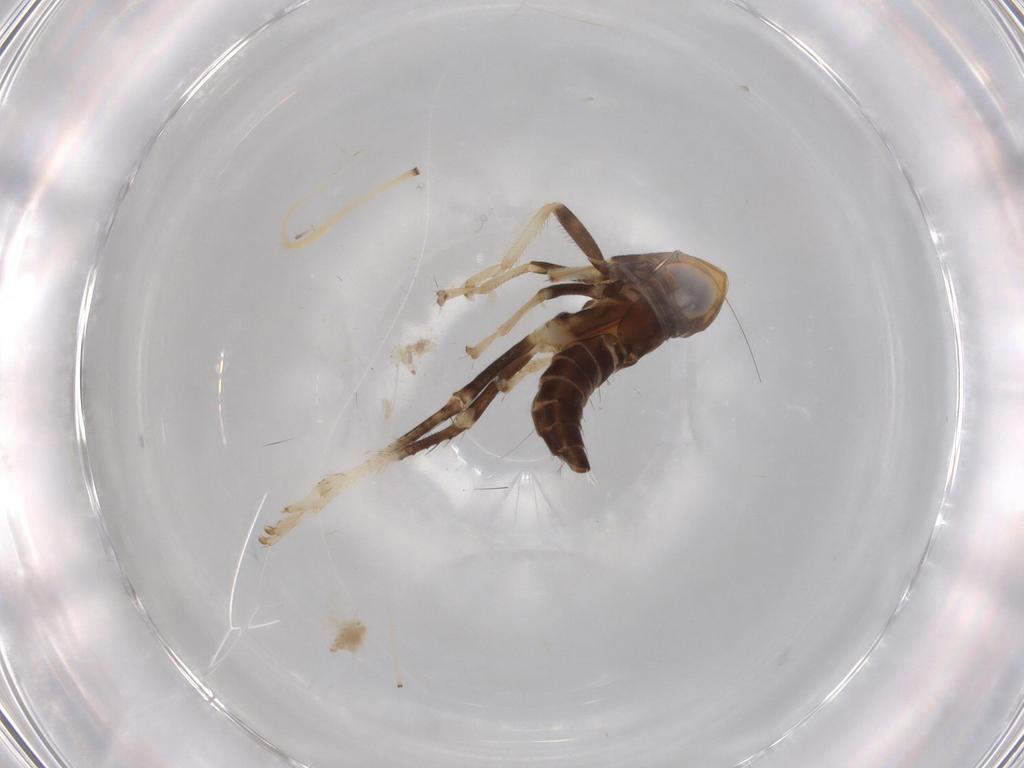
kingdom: Animalia
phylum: Arthropoda
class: Insecta
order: Hemiptera
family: Cicadellidae
